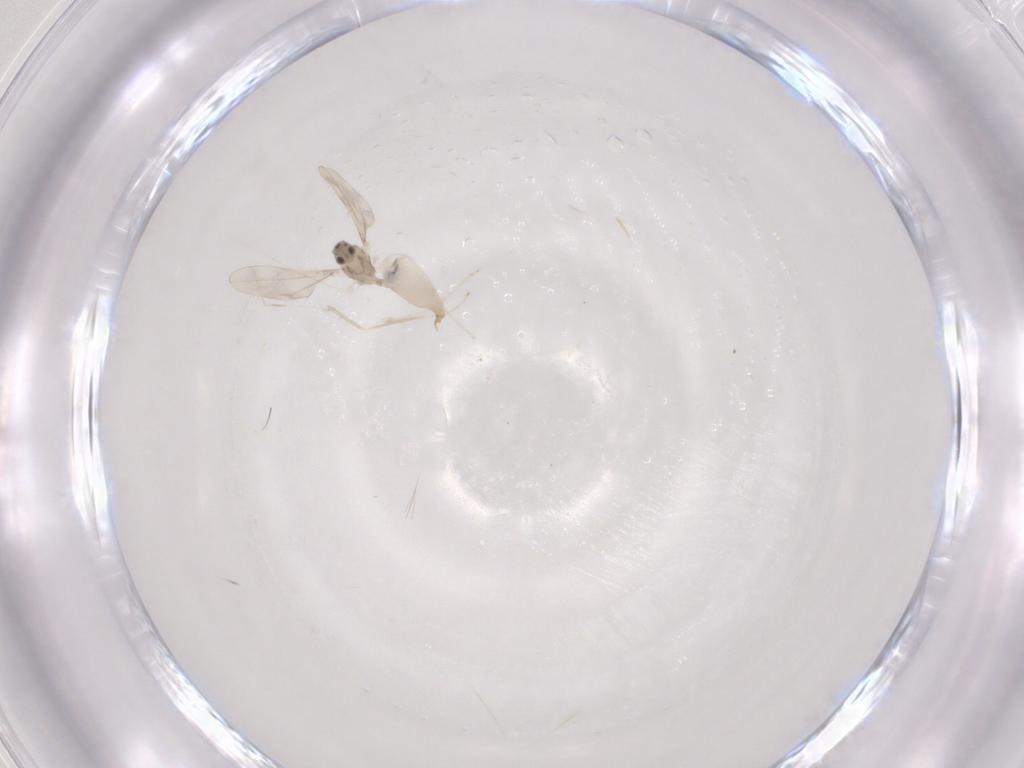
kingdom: Animalia
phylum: Arthropoda
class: Insecta
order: Diptera
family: Cecidomyiidae
